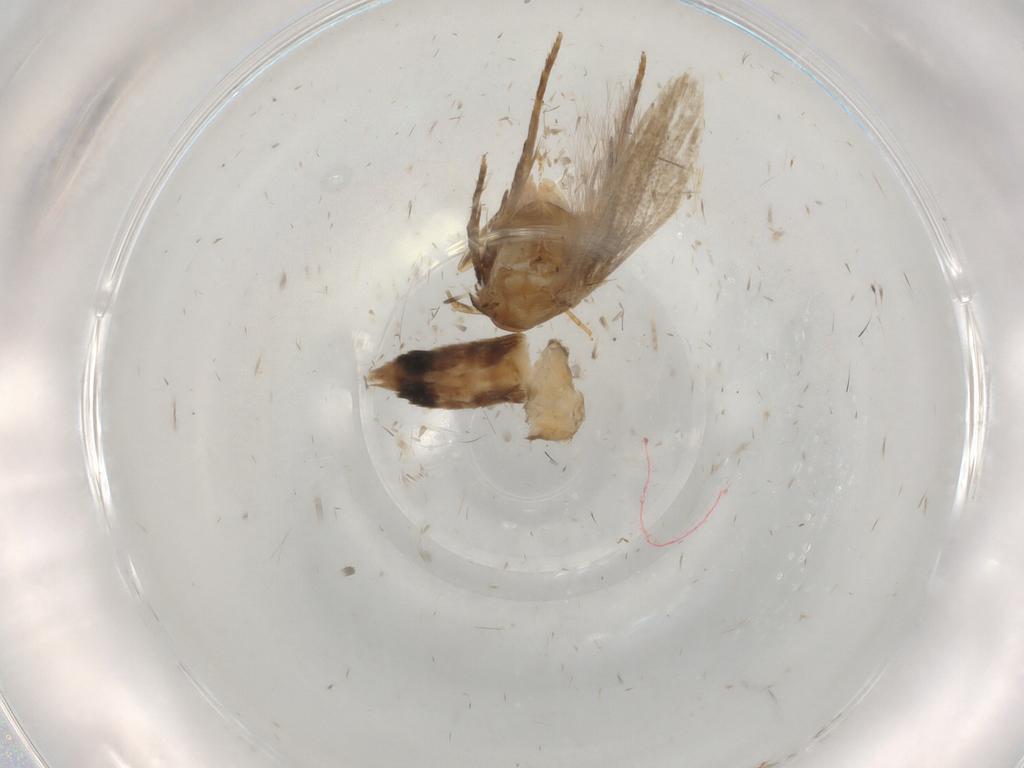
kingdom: Animalia
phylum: Arthropoda
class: Insecta
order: Lepidoptera
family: Cosmopterigidae
